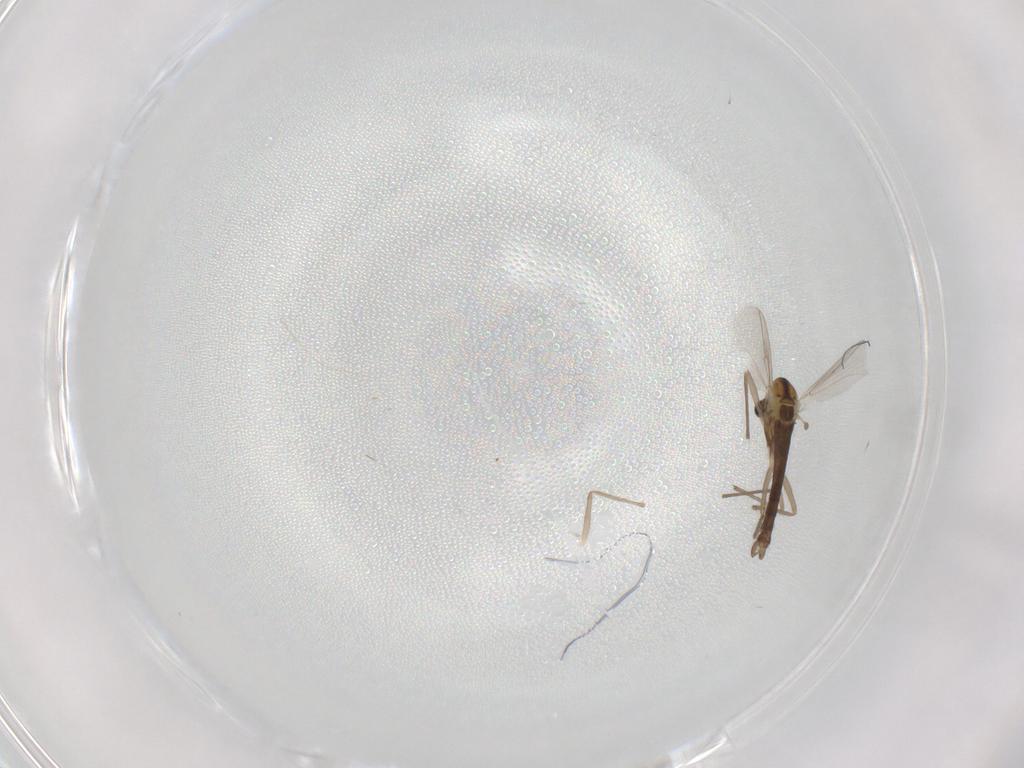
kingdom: Animalia
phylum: Arthropoda
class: Insecta
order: Diptera
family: Chironomidae
